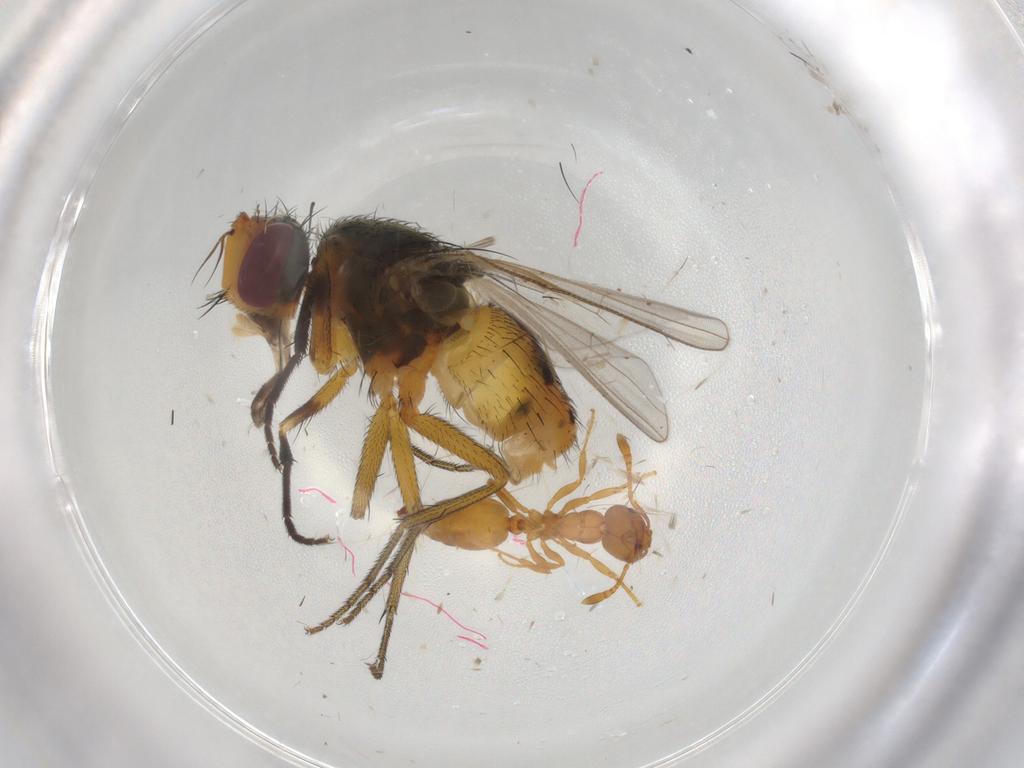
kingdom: Animalia
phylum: Arthropoda
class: Insecta
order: Diptera
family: Muscidae
